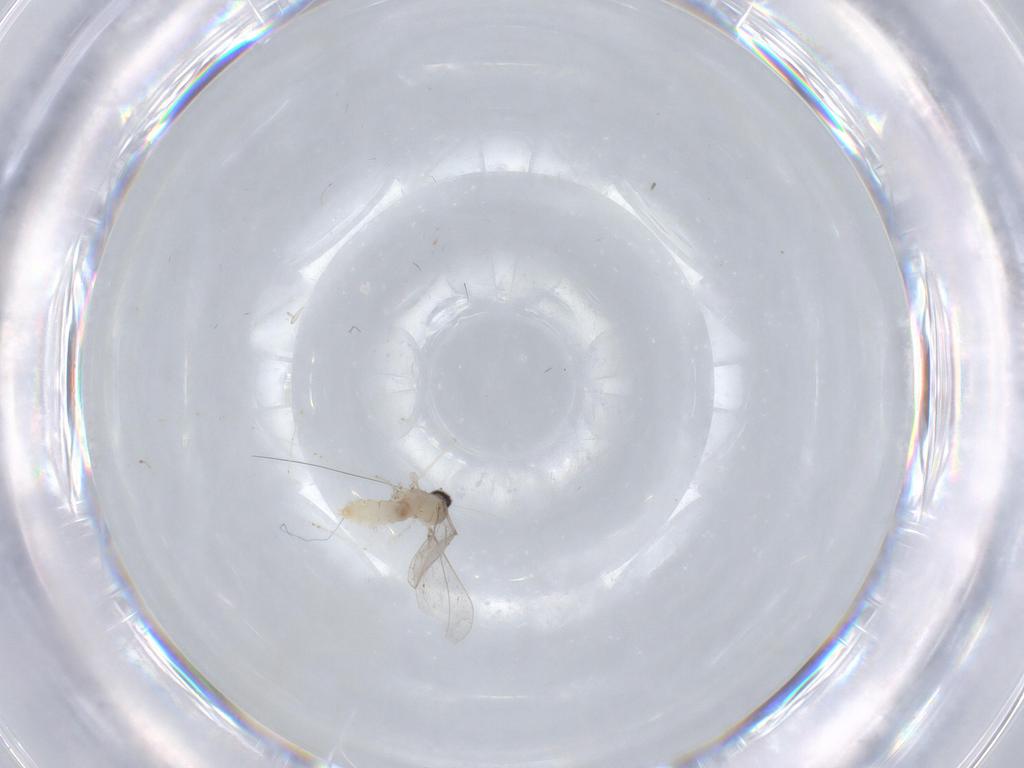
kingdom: Animalia
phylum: Arthropoda
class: Insecta
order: Diptera
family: Cecidomyiidae
